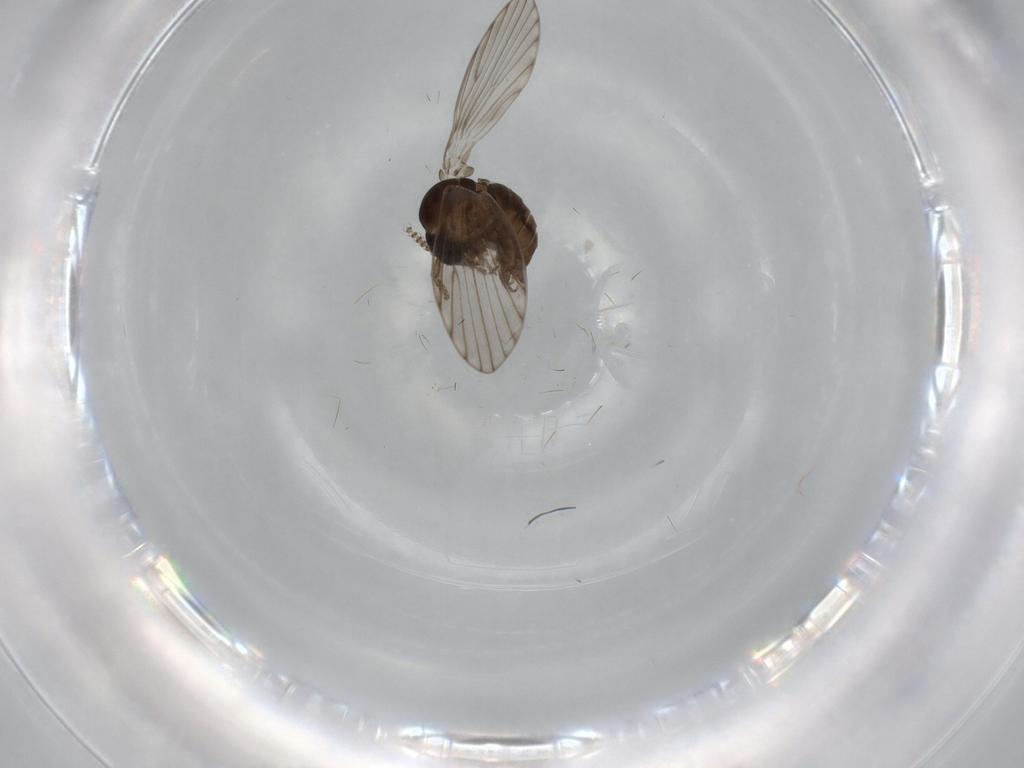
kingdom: Animalia
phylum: Arthropoda
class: Insecta
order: Diptera
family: Psychodidae
